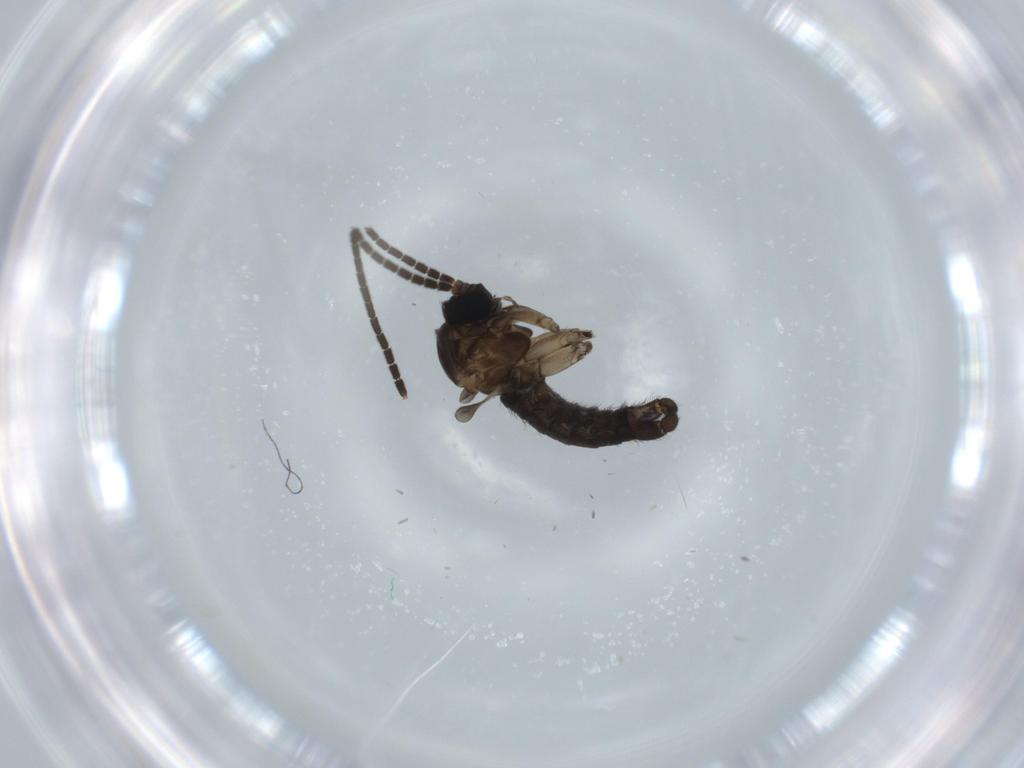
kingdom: Animalia
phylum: Arthropoda
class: Insecta
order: Diptera
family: Sciaridae
